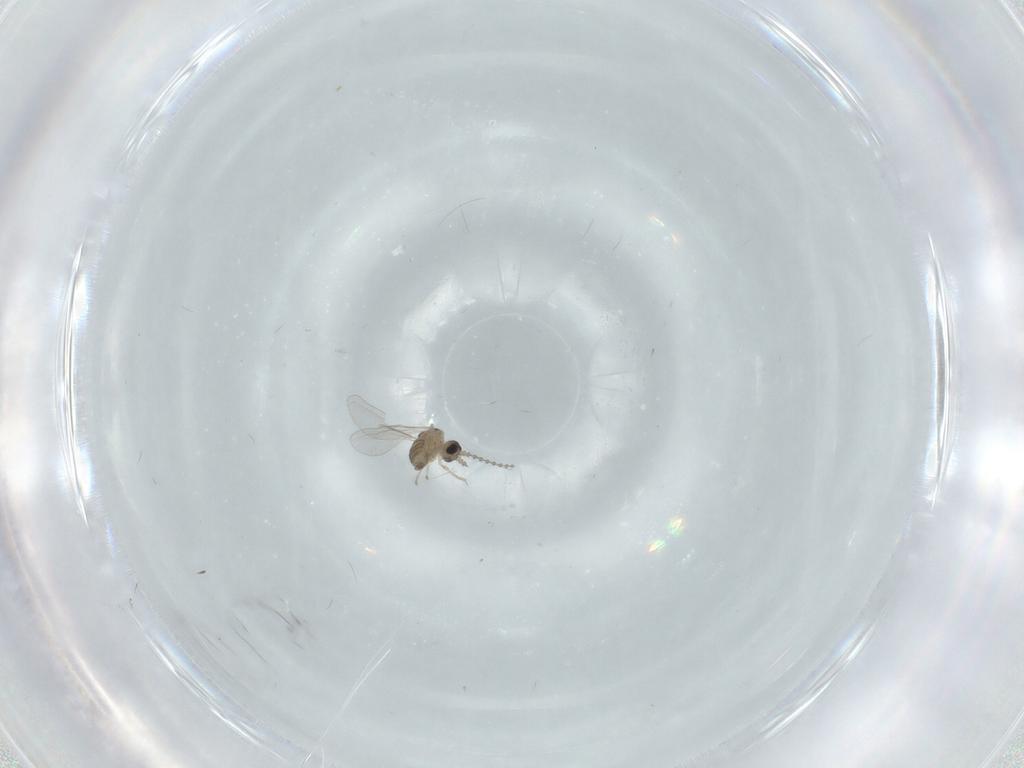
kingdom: Animalia
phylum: Arthropoda
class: Insecta
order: Diptera
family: Cecidomyiidae
